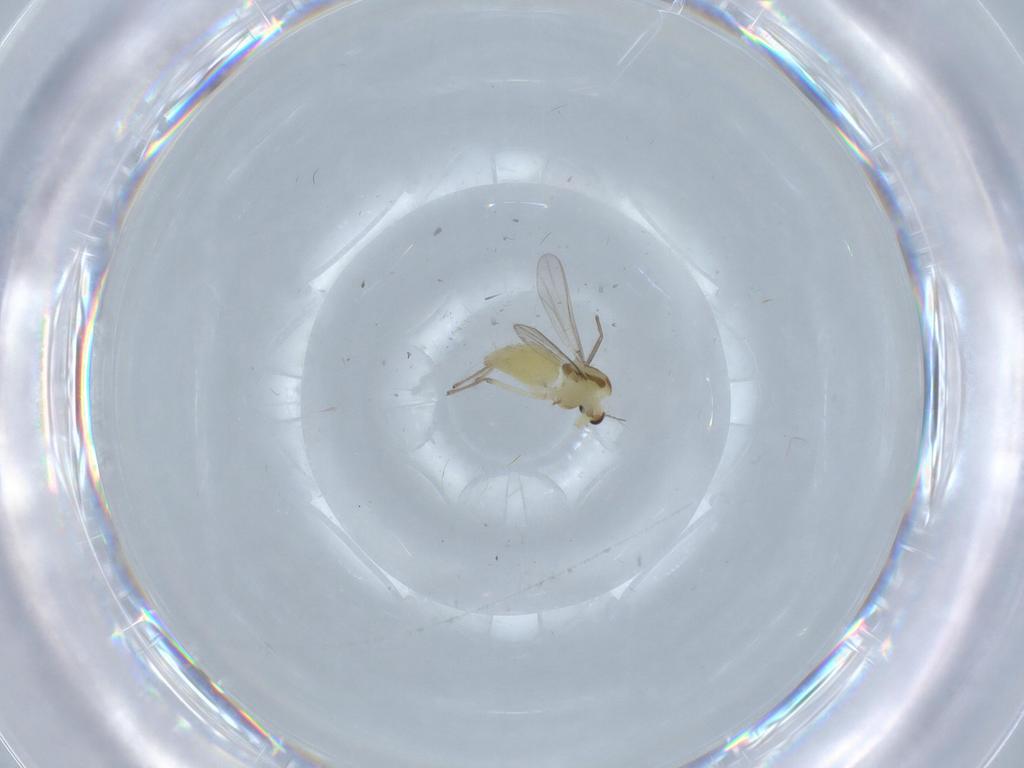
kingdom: Animalia
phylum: Arthropoda
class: Insecta
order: Diptera
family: Chironomidae
